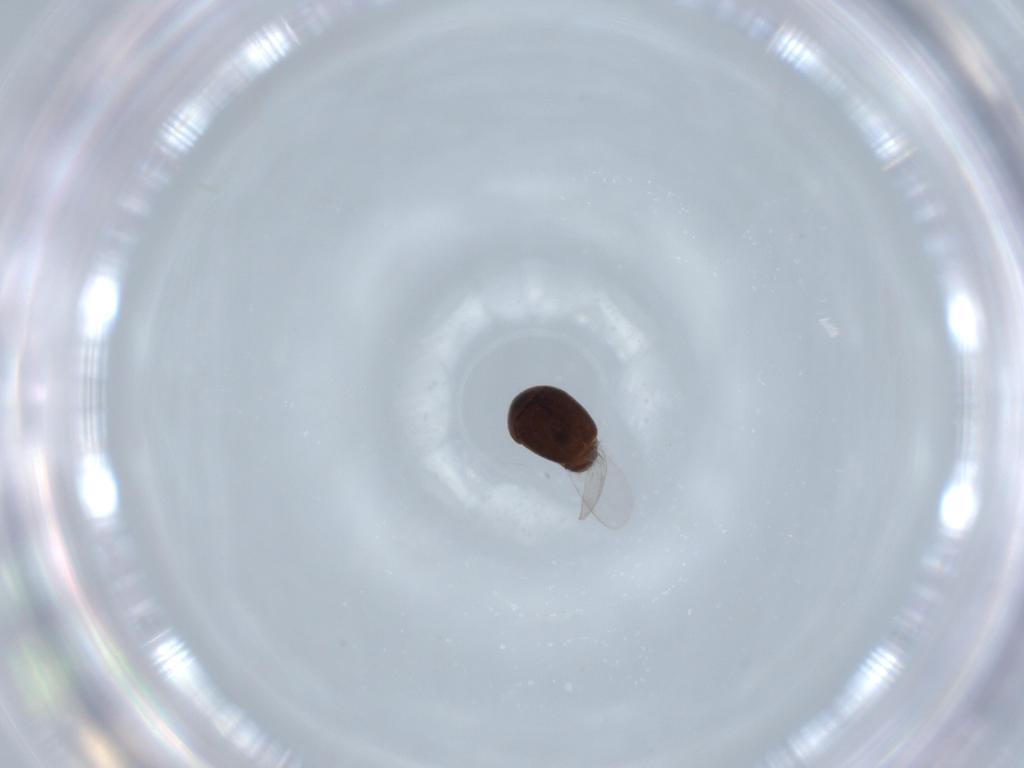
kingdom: Animalia
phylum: Arthropoda
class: Insecta
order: Coleoptera
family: Corylophidae
